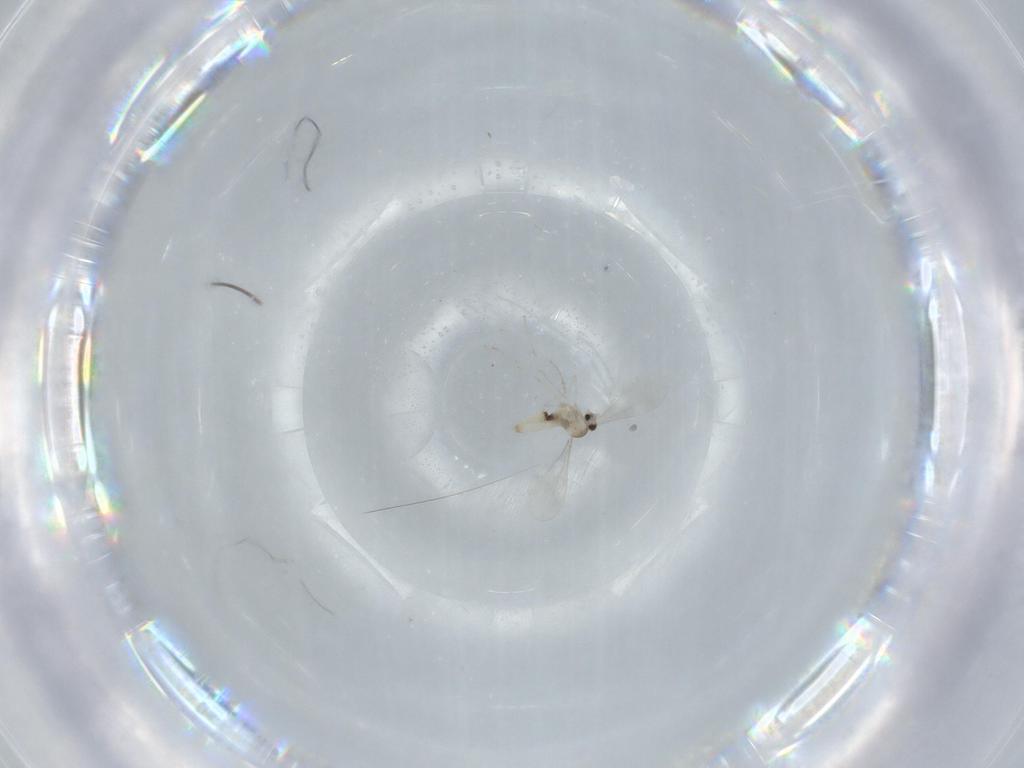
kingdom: Animalia
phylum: Arthropoda
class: Insecta
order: Diptera
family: Cecidomyiidae
